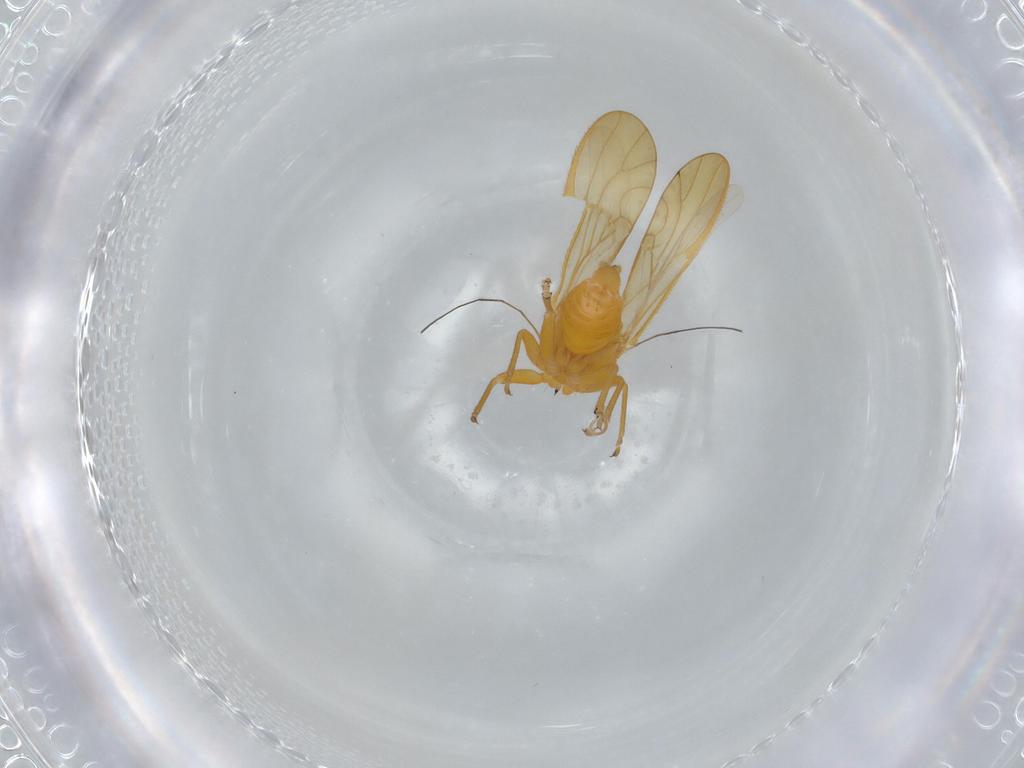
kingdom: Animalia
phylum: Arthropoda
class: Insecta
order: Hemiptera
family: Psyllidae
